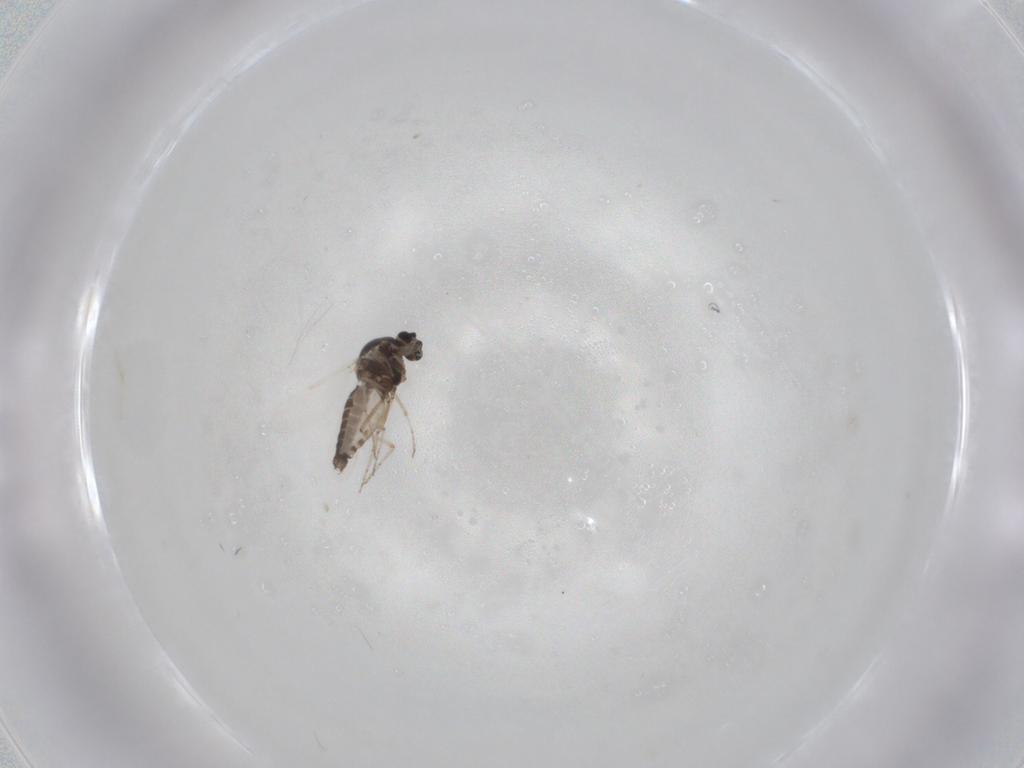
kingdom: Animalia
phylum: Arthropoda
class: Insecta
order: Diptera
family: Ceratopogonidae
